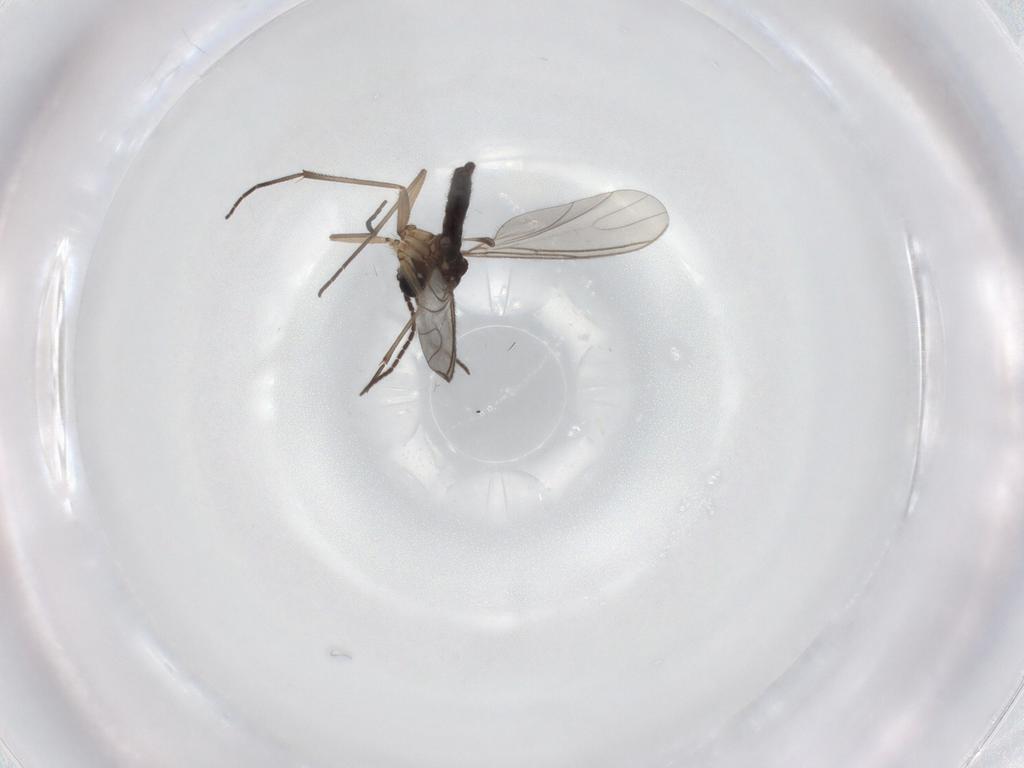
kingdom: Animalia
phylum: Arthropoda
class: Insecta
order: Diptera
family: Sciaridae
